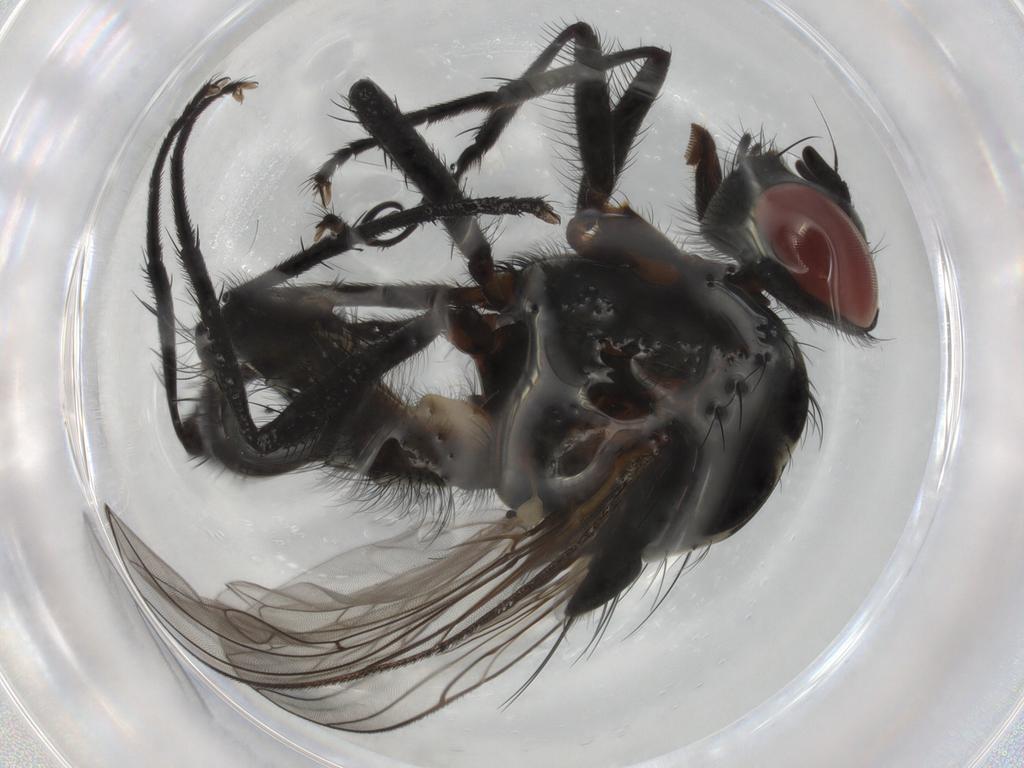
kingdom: Animalia
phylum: Arthropoda
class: Insecta
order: Diptera
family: Anthomyiidae
